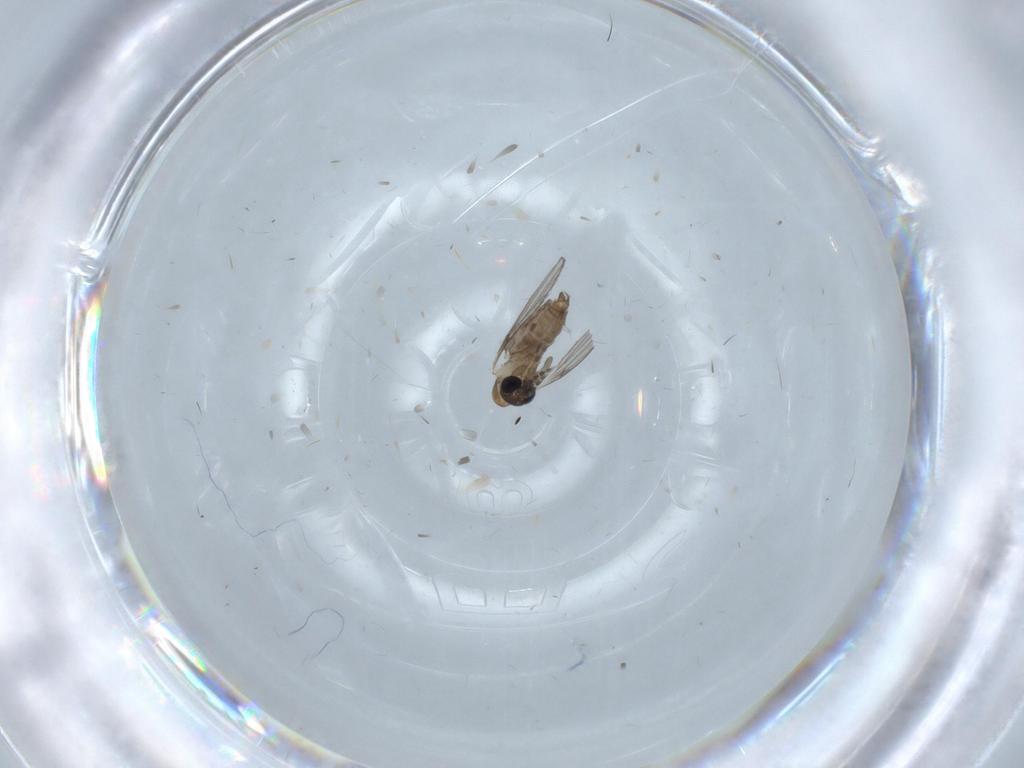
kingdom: Animalia
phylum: Arthropoda
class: Insecta
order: Diptera
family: Psychodidae
